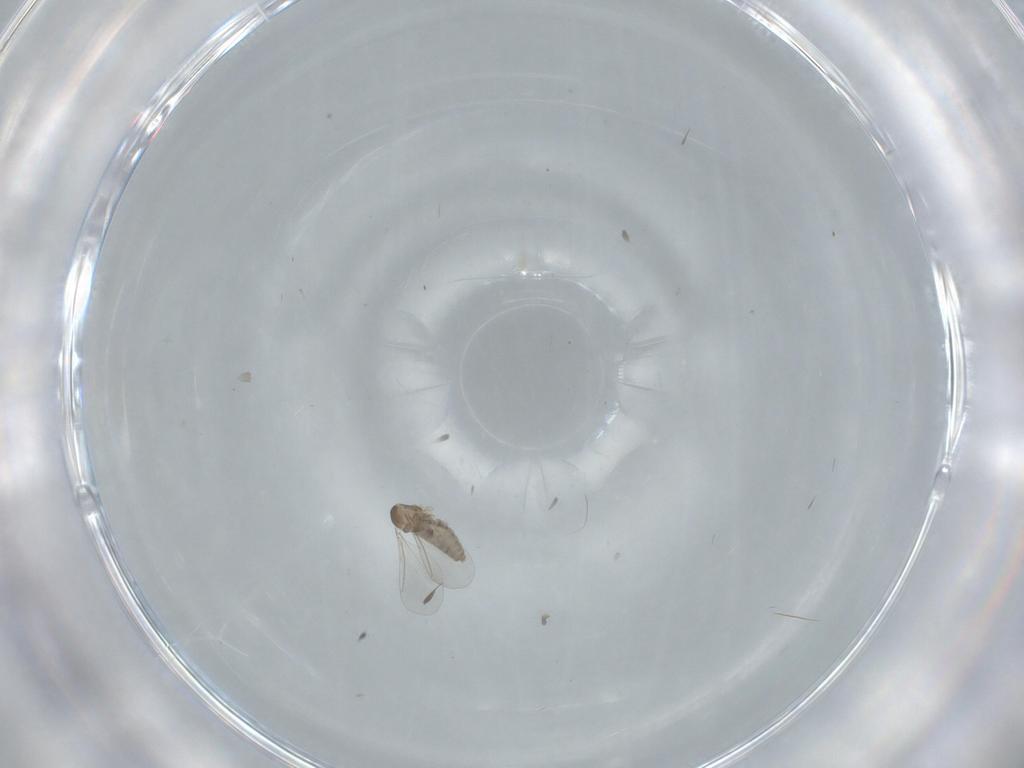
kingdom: Animalia
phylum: Arthropoda
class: Insecta
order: Diptera
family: Cecidomyiidae
